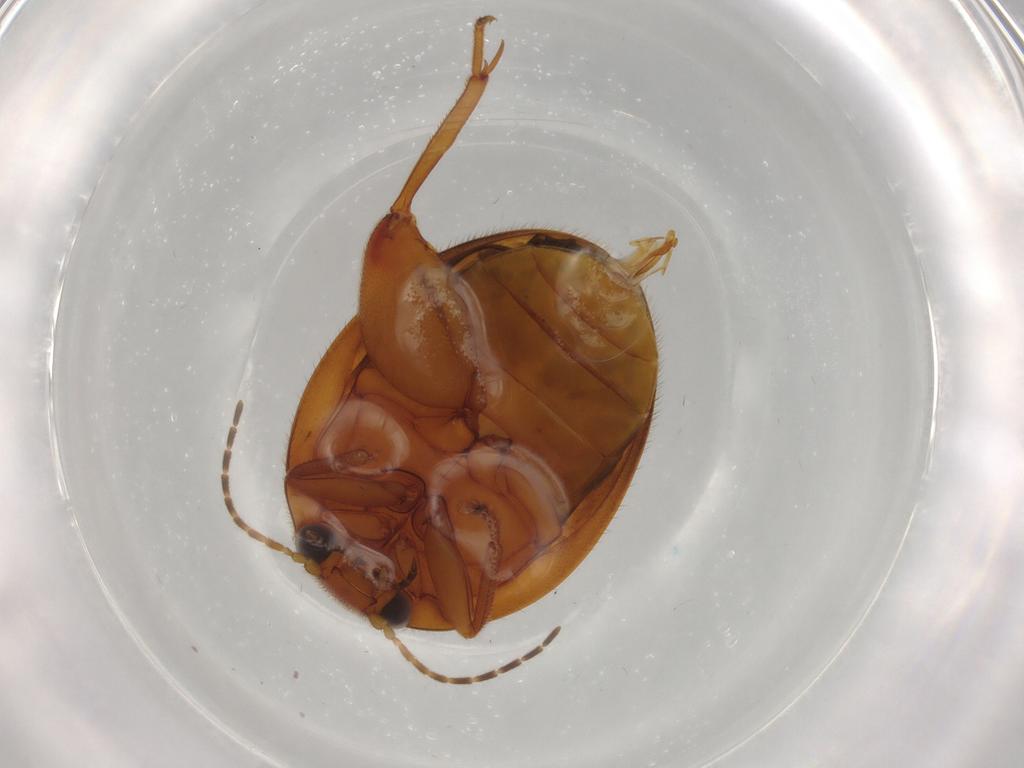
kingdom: Animalia
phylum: Arthropoda
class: Insecta
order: Coleoptera
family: Scirtidae
